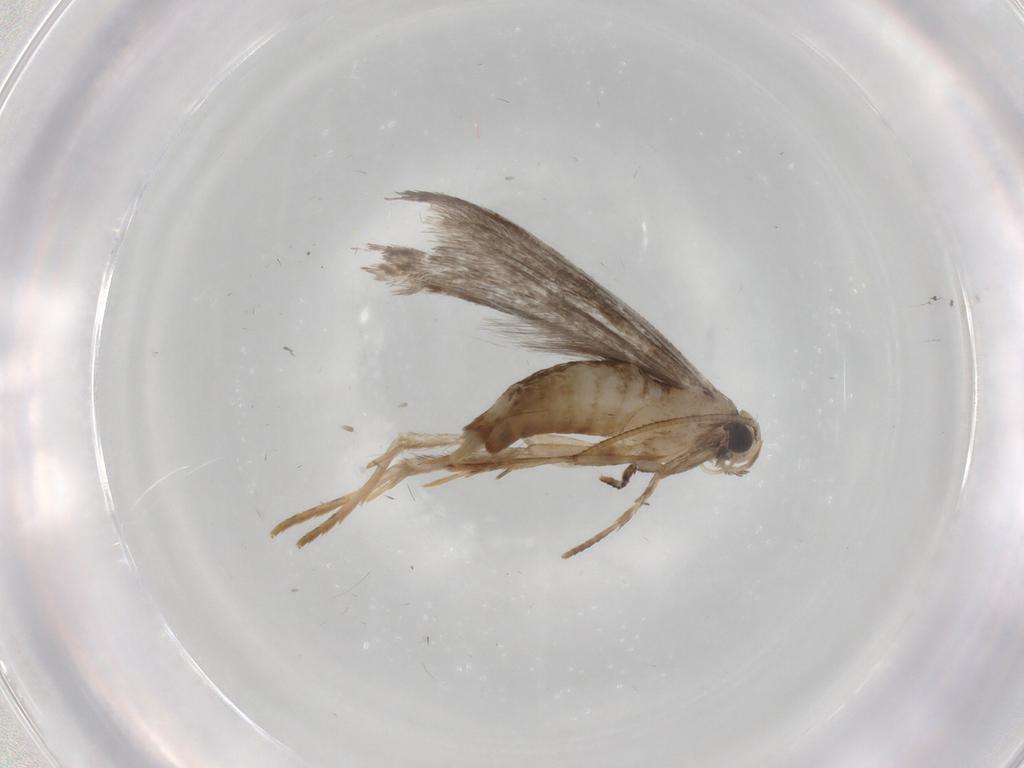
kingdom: Animalia
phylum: Arthropoda
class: Insecta
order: Lepidoptera
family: Tineidae
